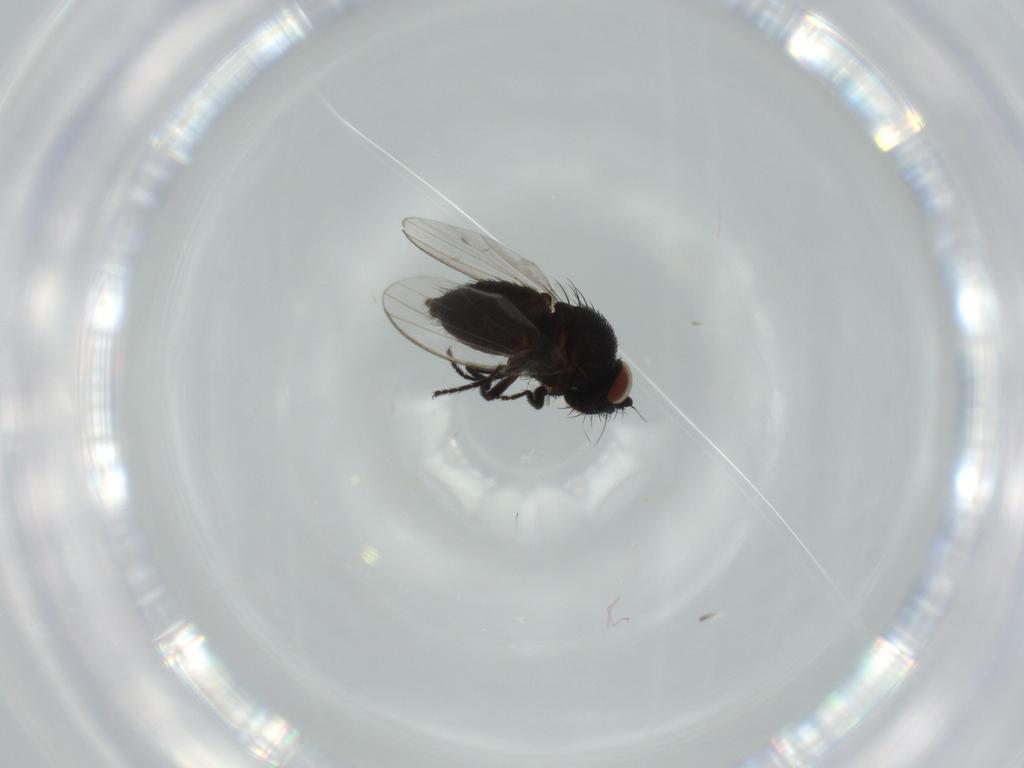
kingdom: Animalia
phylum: Arthropoda
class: Insecta
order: Diptera
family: Milichiidae
